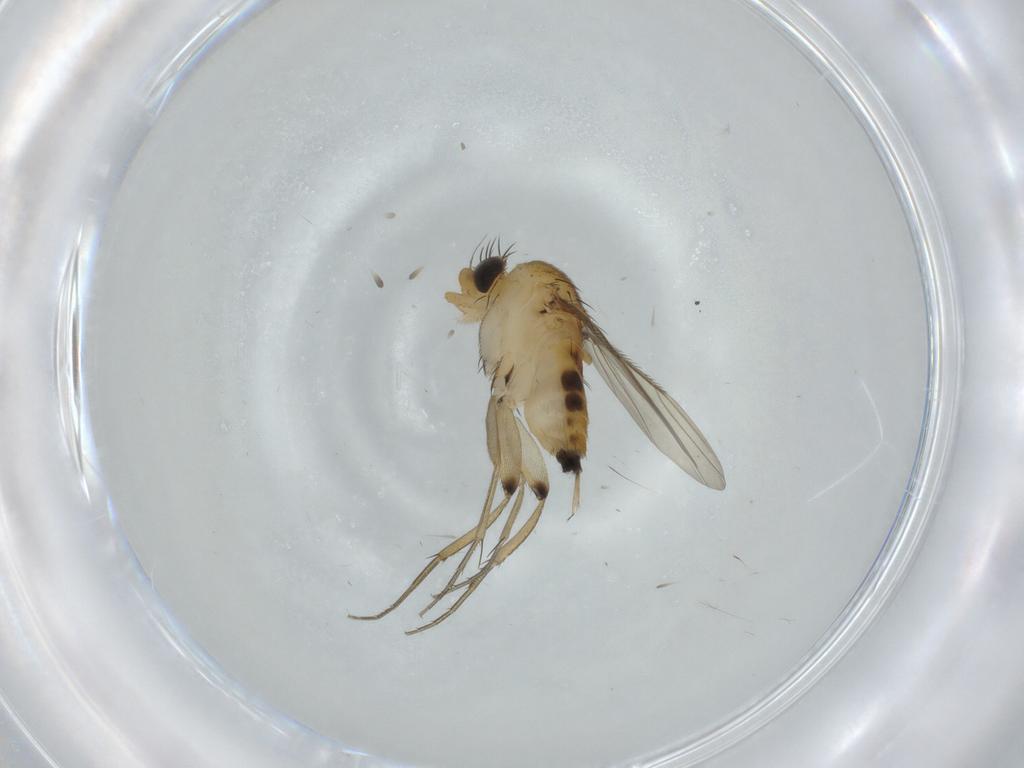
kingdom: Animalia
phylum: Arthropoda
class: Insecta
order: Diptera
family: Phoridae
